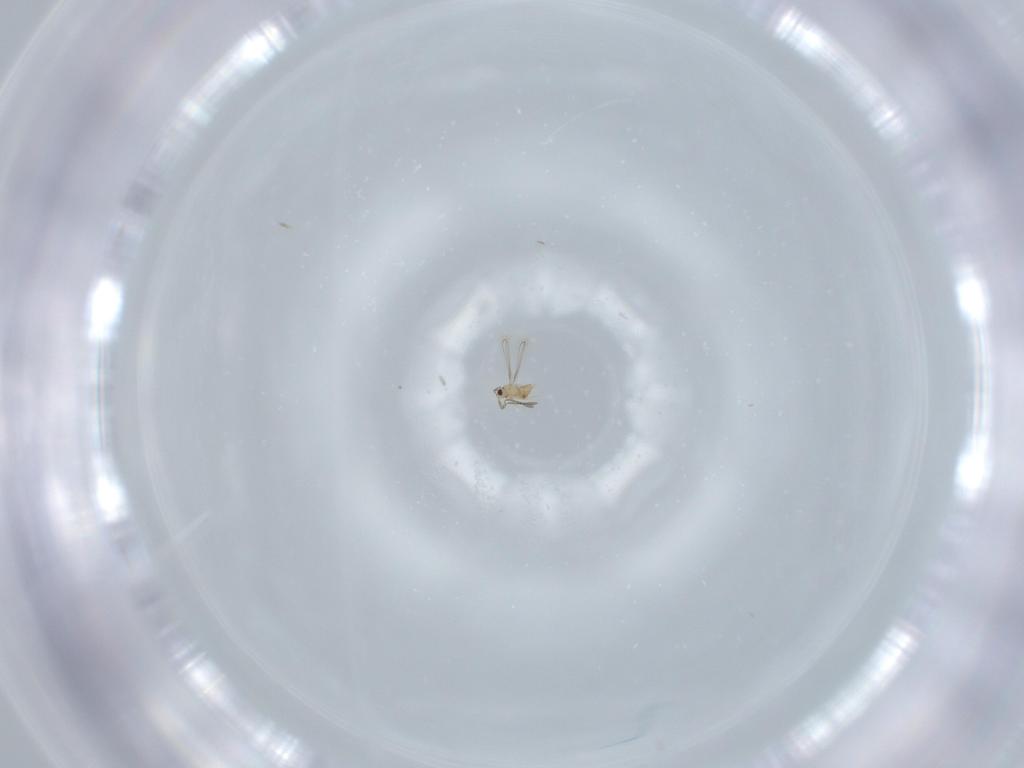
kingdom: Animalia
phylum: Arthropoda
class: Insecta
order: Hymenoptera
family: Mymaridae
